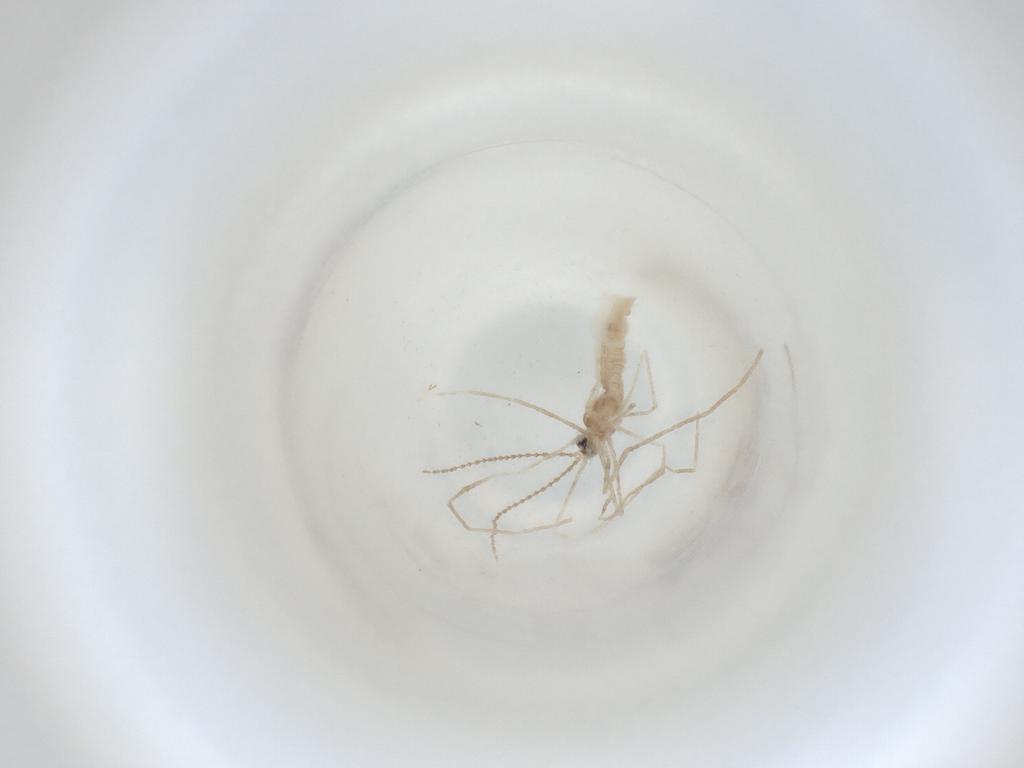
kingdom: Animalia
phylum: Arthropoda
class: Insecta
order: Diptera
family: Cecidomyiidae
